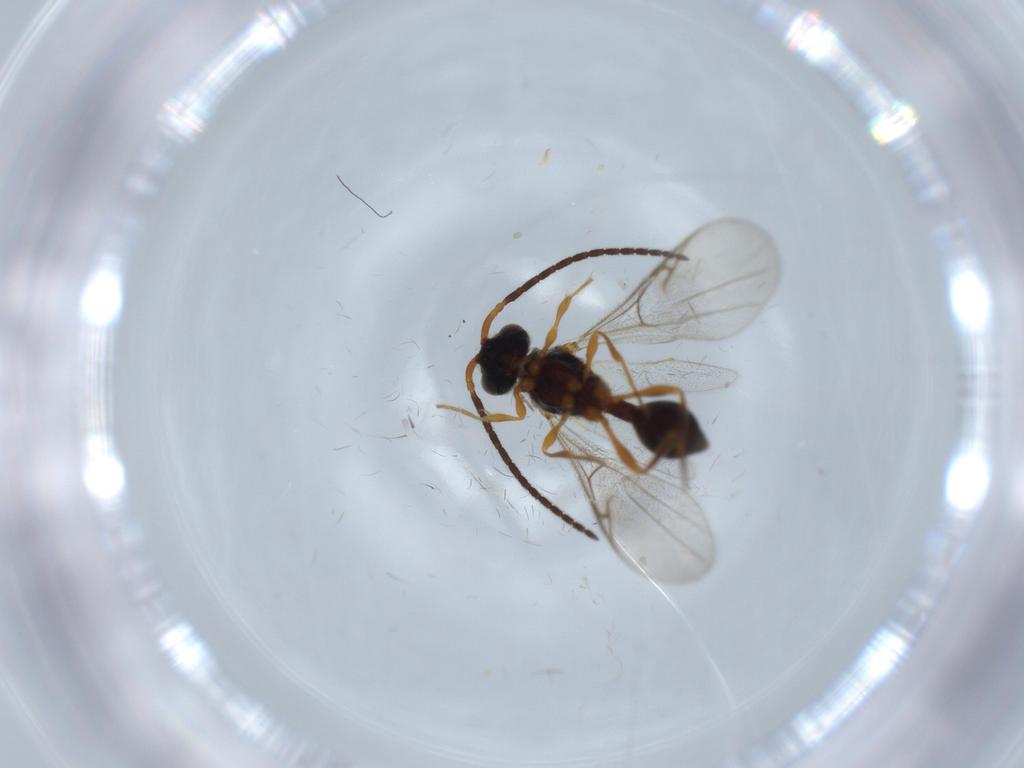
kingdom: Animalia
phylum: Arthropoda
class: Insecta
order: Hymenoptera
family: Diapriidae
